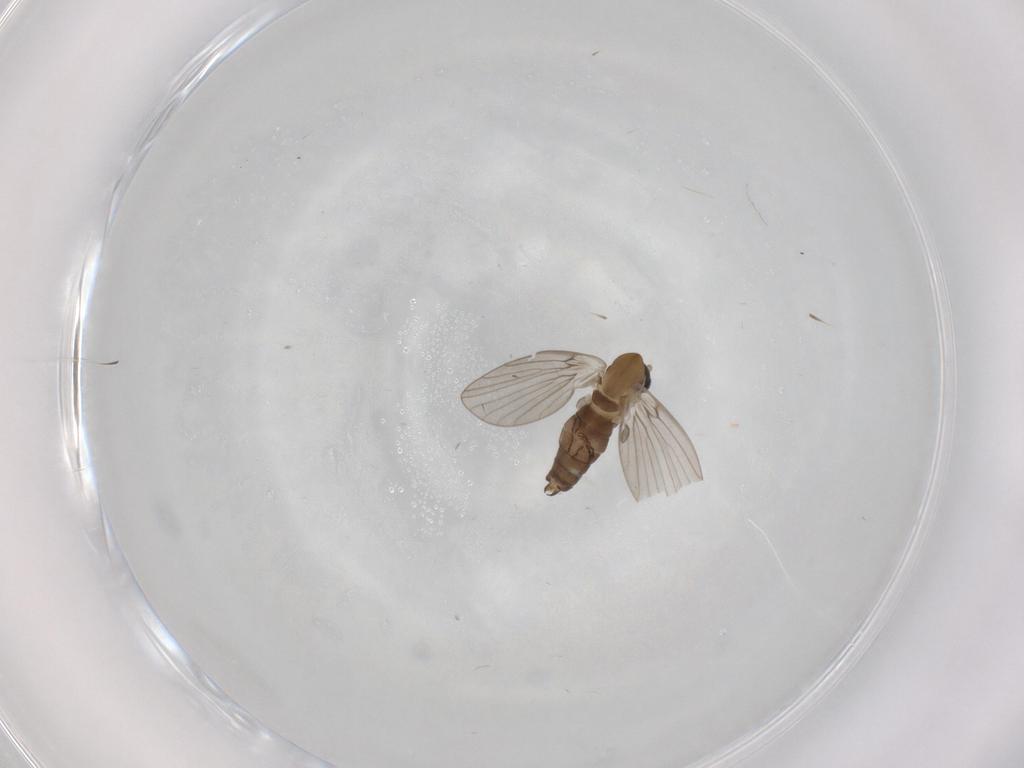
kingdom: Animalia
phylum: Arthropoda
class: Insecta
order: Diptera
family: Psychodidae
